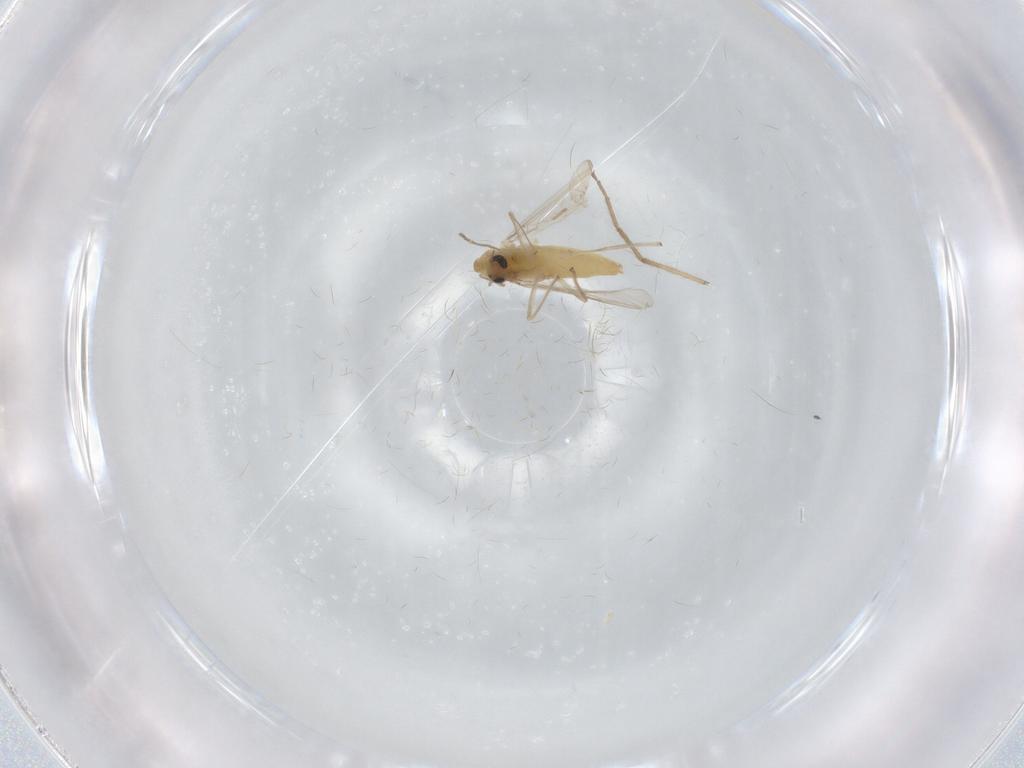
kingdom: Animalia
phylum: Arthropoda
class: Insecta
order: Diptera
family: Chironomidae
